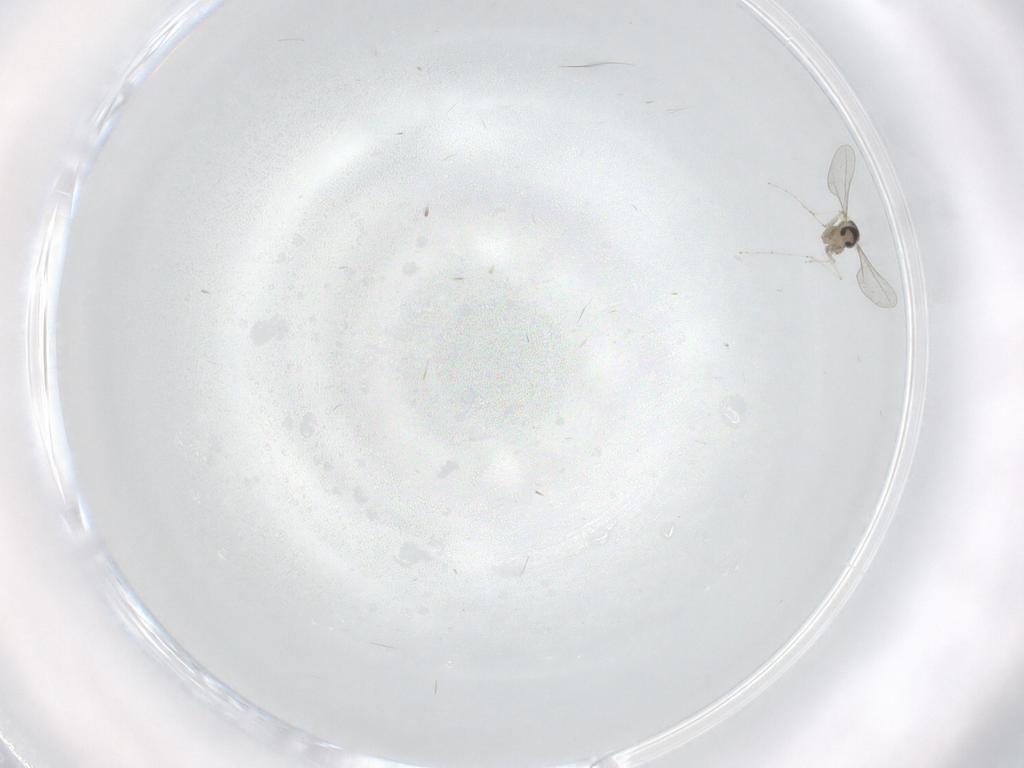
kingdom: Animalia
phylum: Arthropoda
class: Insecta
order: Diptera
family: Cecidomyiidae
